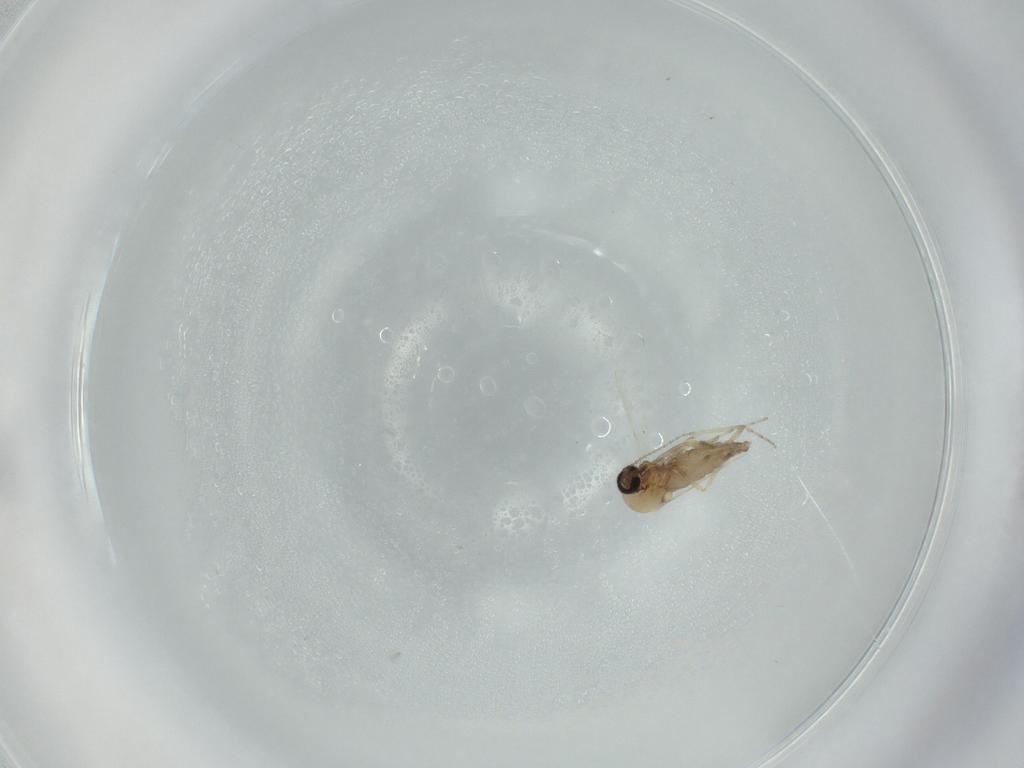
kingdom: Animalia
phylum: Arthropoda
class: Insecta
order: Diptera
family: Ceratopogonidae
